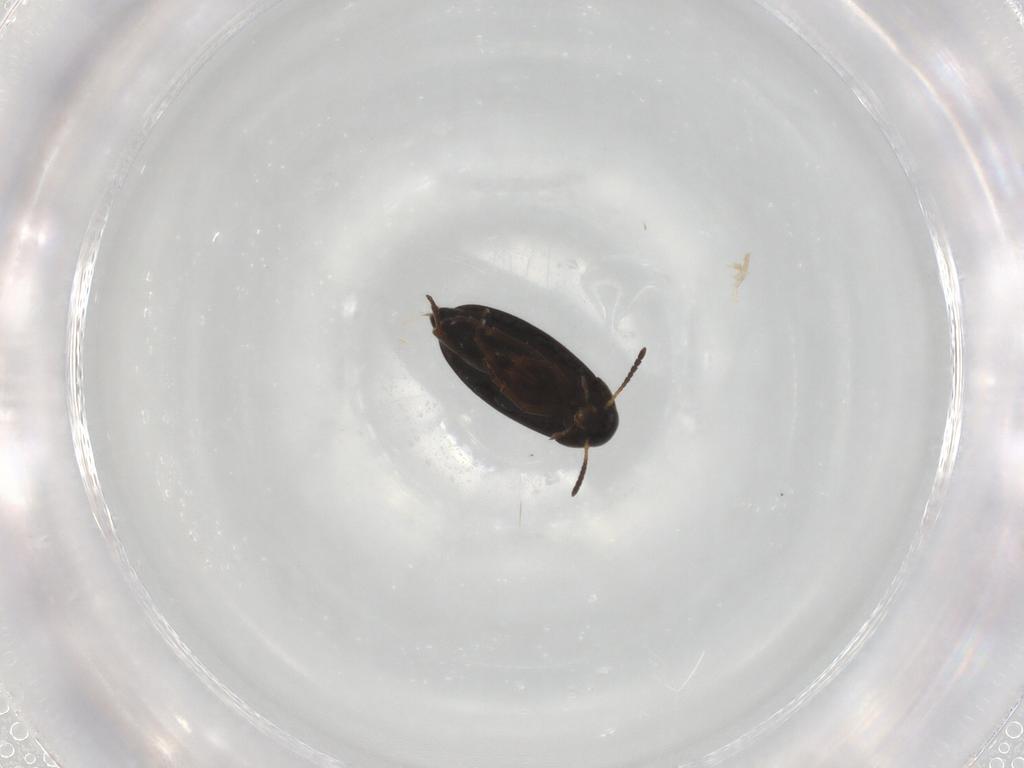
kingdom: Animalia
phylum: Arthropoda
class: Insecta
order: Coleoptera
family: Scraptiidae
